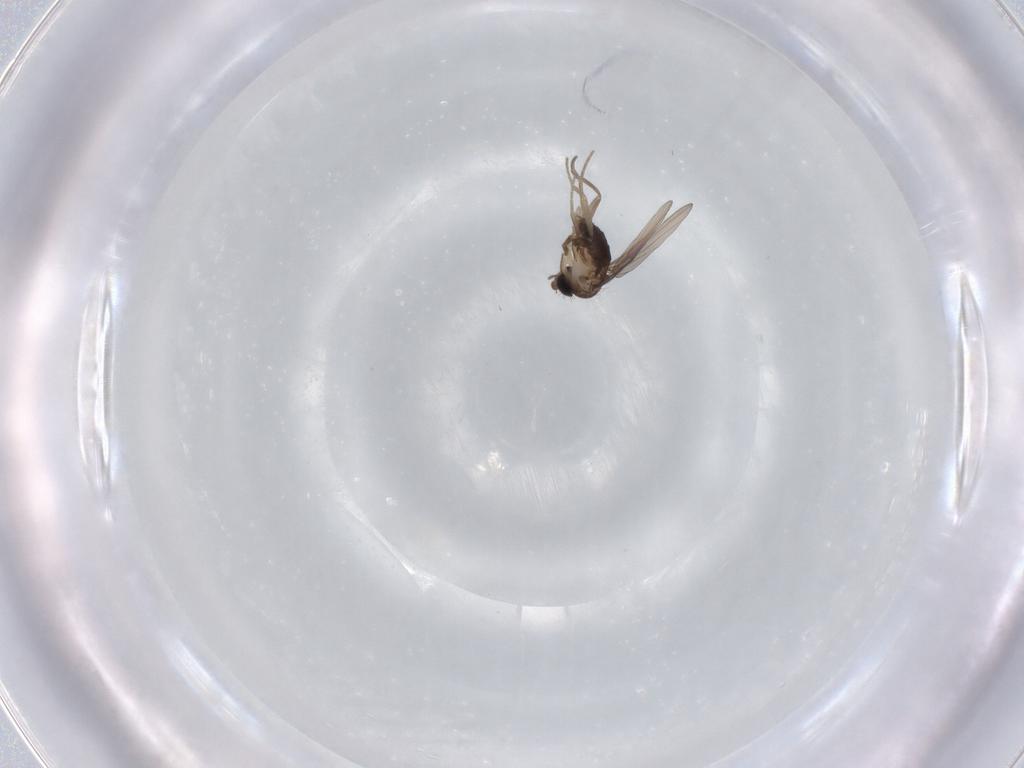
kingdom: Animalia
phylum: Arthropoda
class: Insecta
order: Diptera
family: Phoridae
